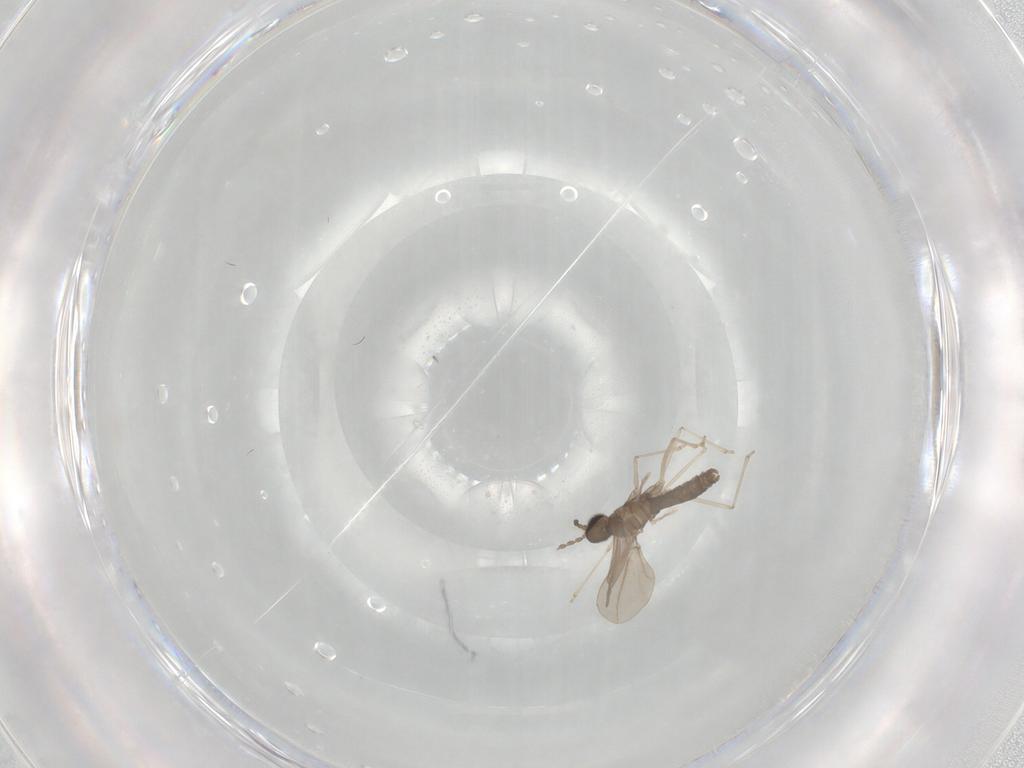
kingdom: Animalia
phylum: Arthropoda
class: Insecta
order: Diptera
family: Cecidomyiidae
